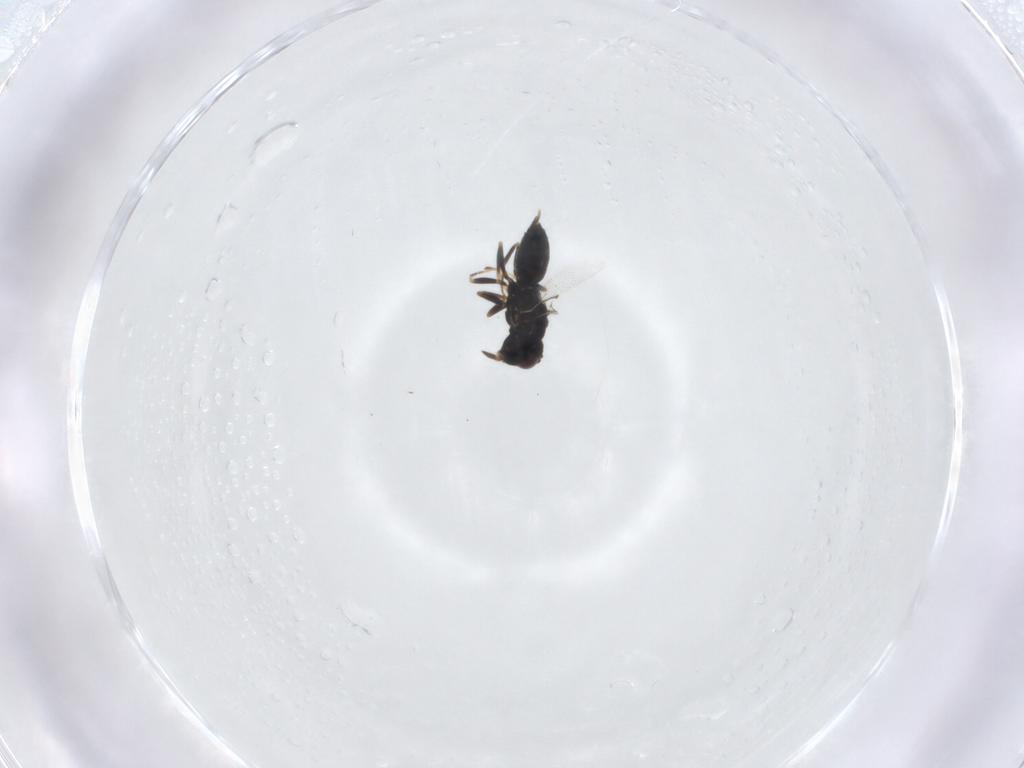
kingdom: Animalia
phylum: Arthropoda
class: Insecta
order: Hymenoptera
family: Eulophidae
